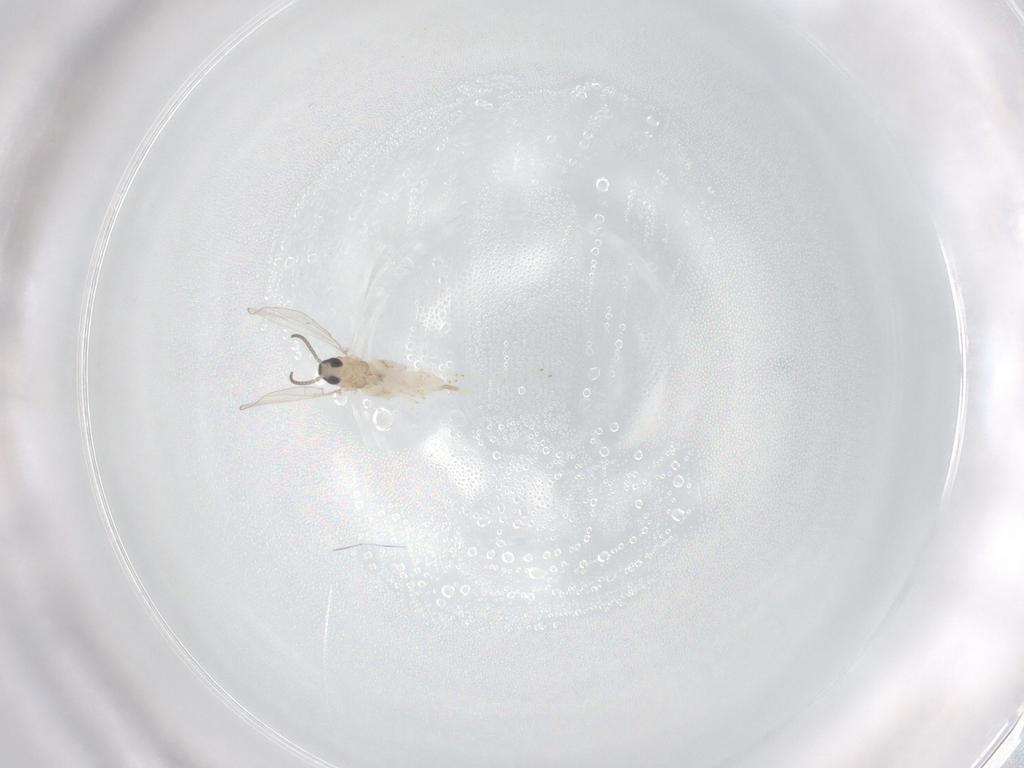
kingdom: Animalia
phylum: Arthropoda
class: Insecta
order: Diptera
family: Cecidomyiidae
